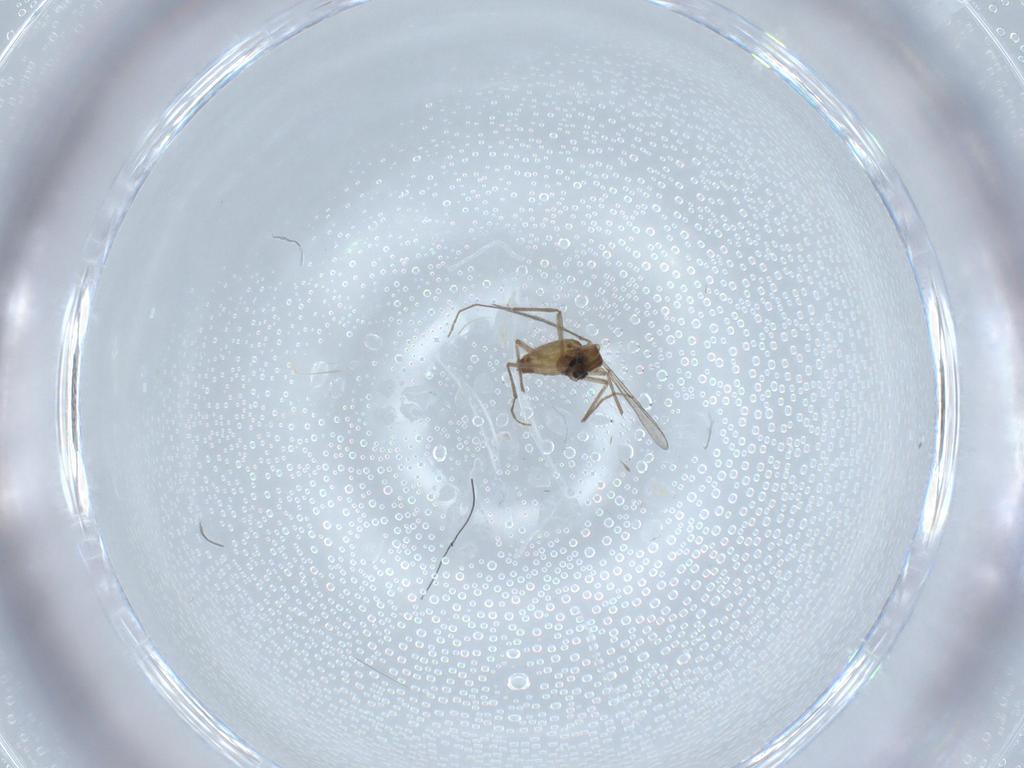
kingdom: Animalia
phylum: Arthropoda
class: Insecta
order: Diptera
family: Chironomidae
